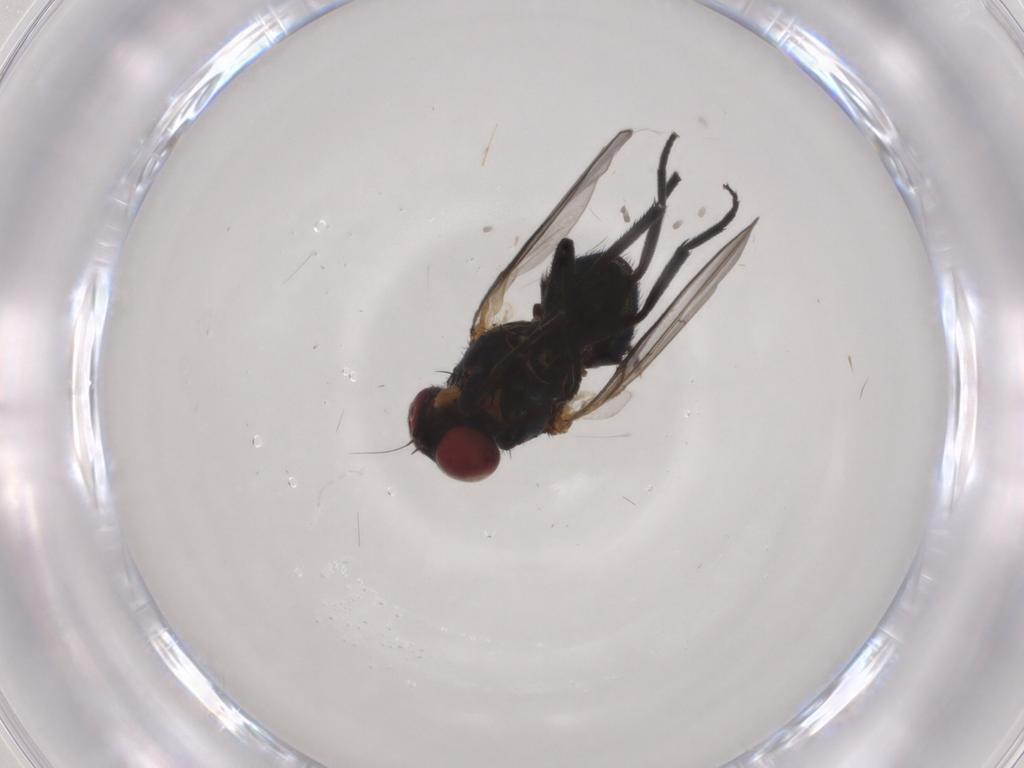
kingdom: Animalia
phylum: Arthropoda
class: Insecta
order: Diptera
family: Agromyzidae
